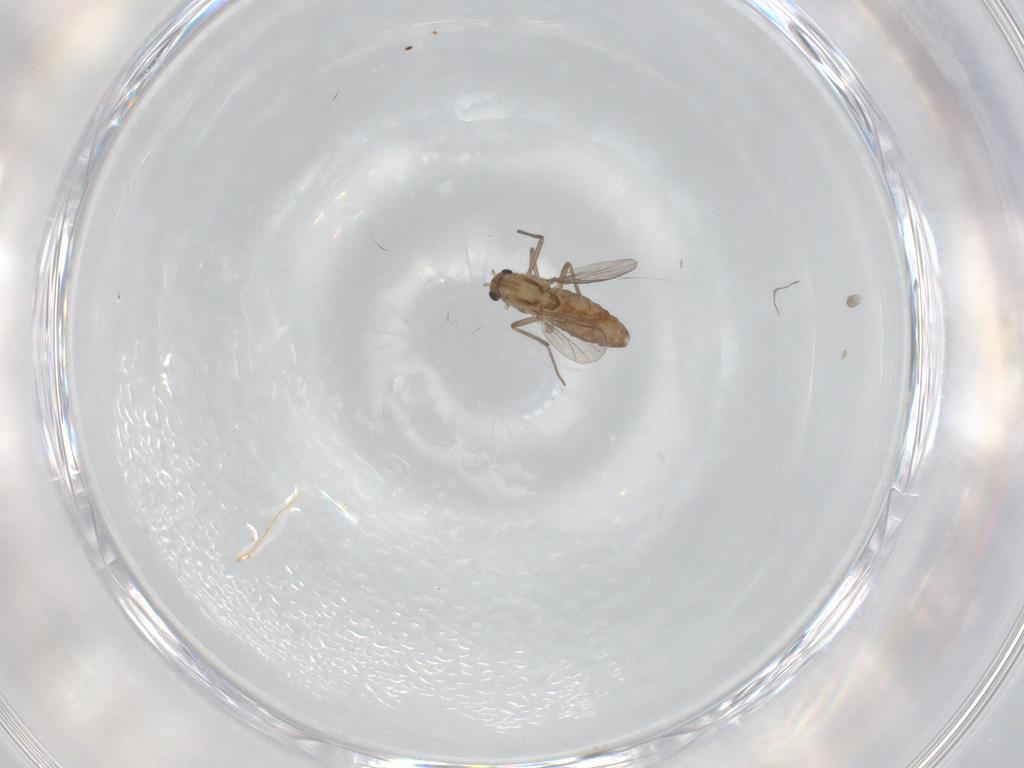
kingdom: Animalia
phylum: Arthropoda
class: Insecta
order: Diptera
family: Chironomidae
